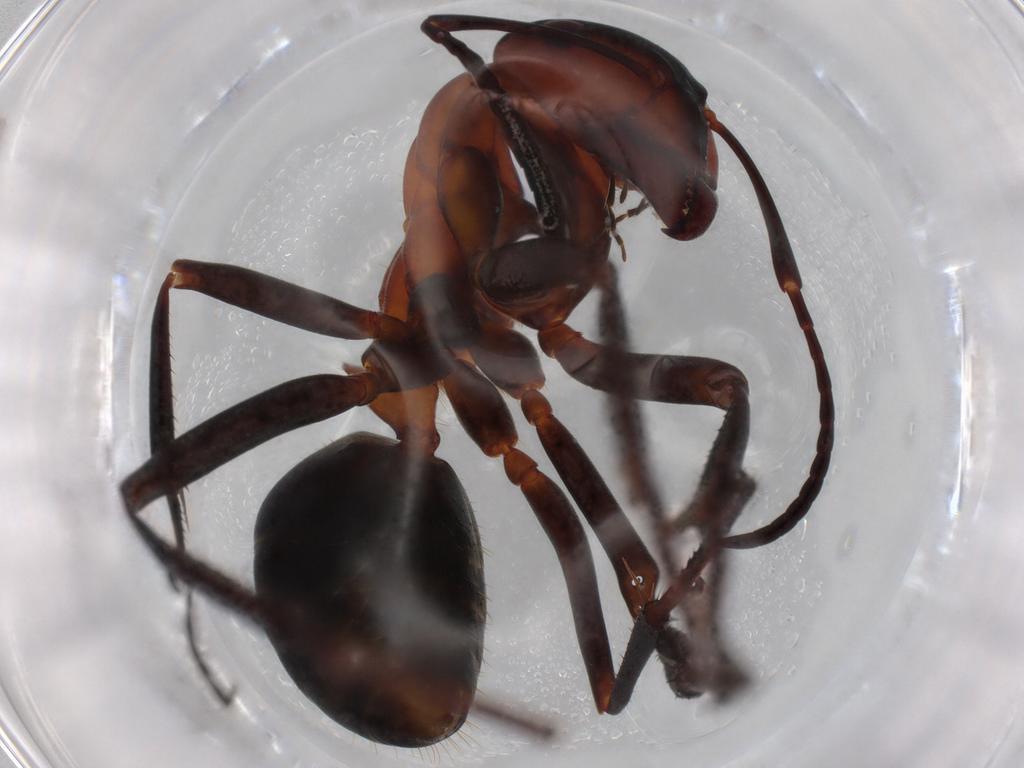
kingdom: Animalia
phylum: Arthropoda
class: Insecta
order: Hymenoptera
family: Formicidae
